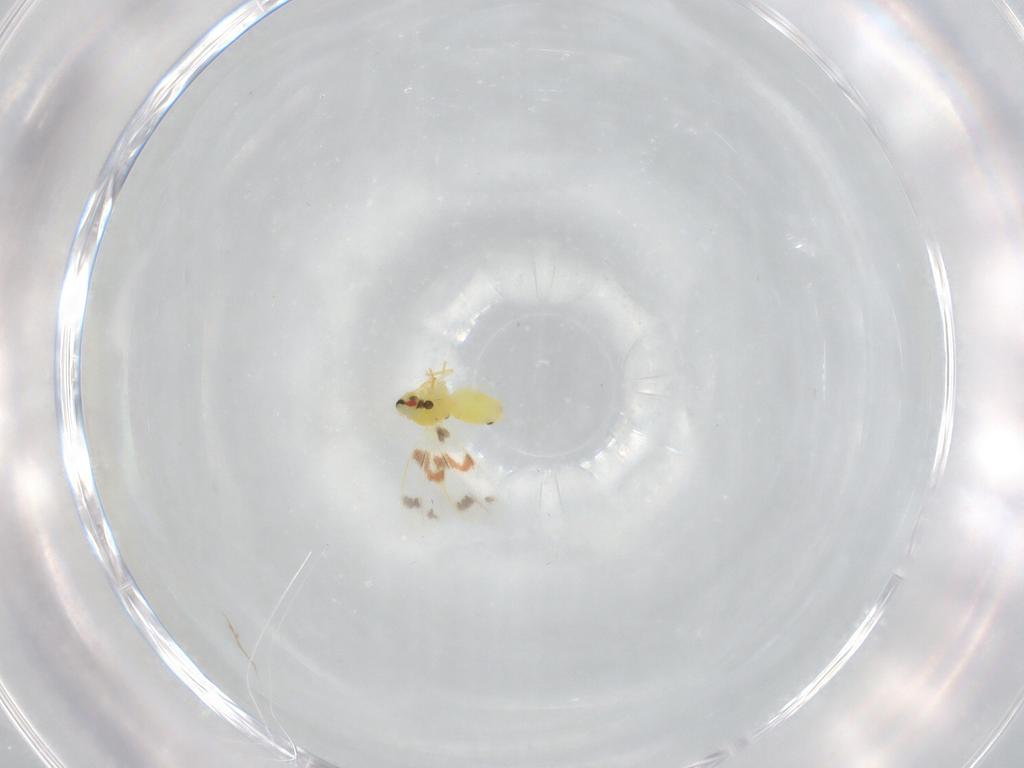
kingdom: Animalia
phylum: Arthropoda
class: Insecta
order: Hemiptera
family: Aleyrodidae
